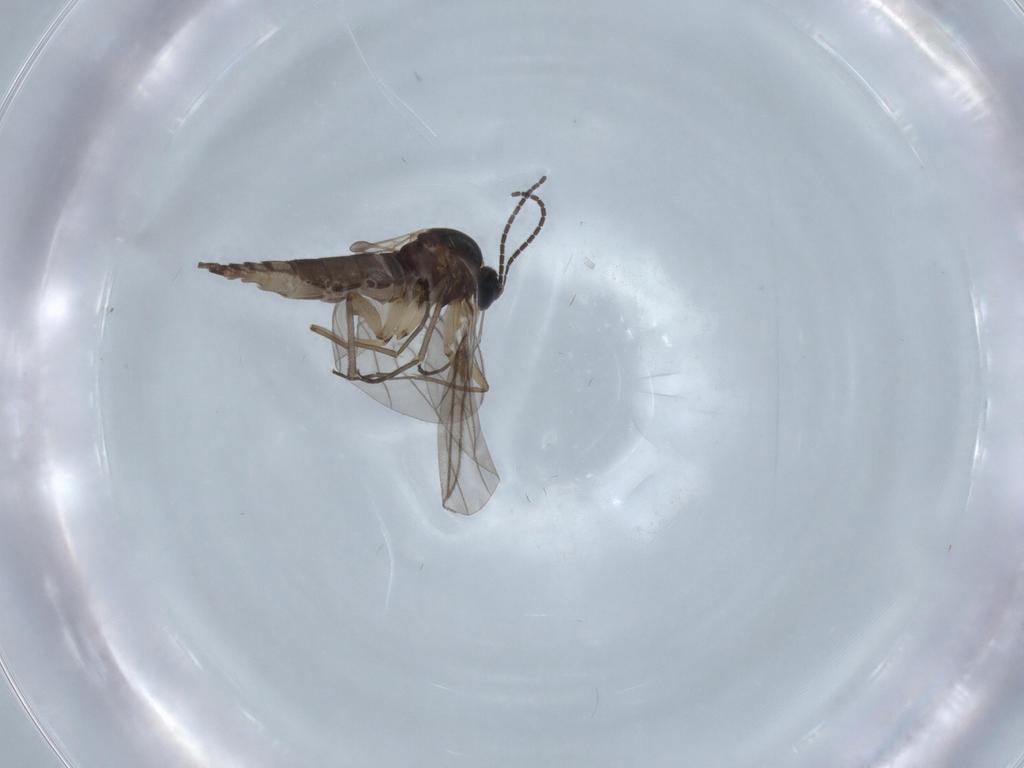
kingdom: Animalia
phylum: Arthropoda
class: Insecta
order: Diptera
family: Sciaridae
